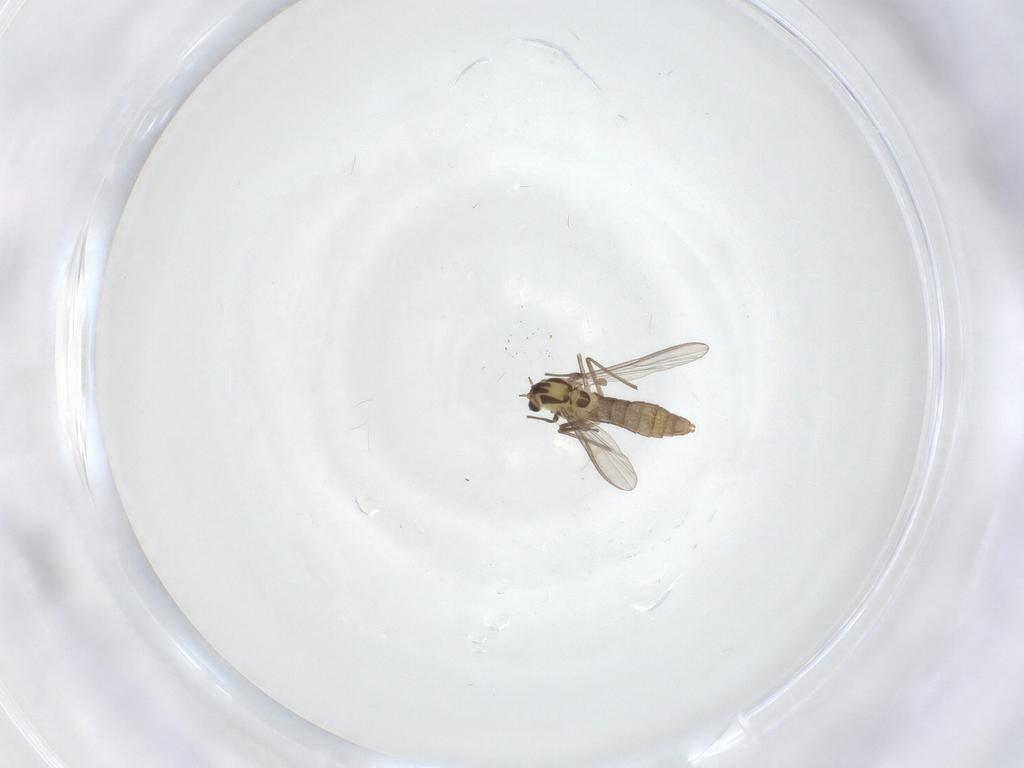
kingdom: Animalia
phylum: Arthropoda
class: Insecta
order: Diptera
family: Chironomidae
